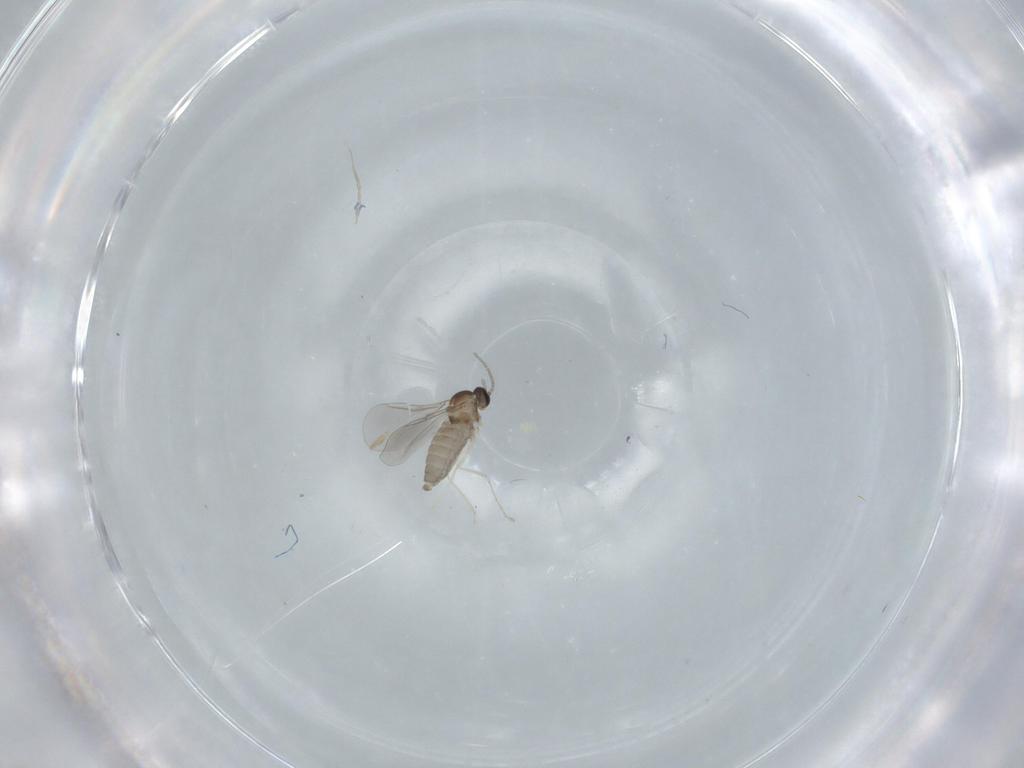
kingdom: Animalia
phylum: Arthropoda
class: Insecta
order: Diptera
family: Cecidomyiidae
